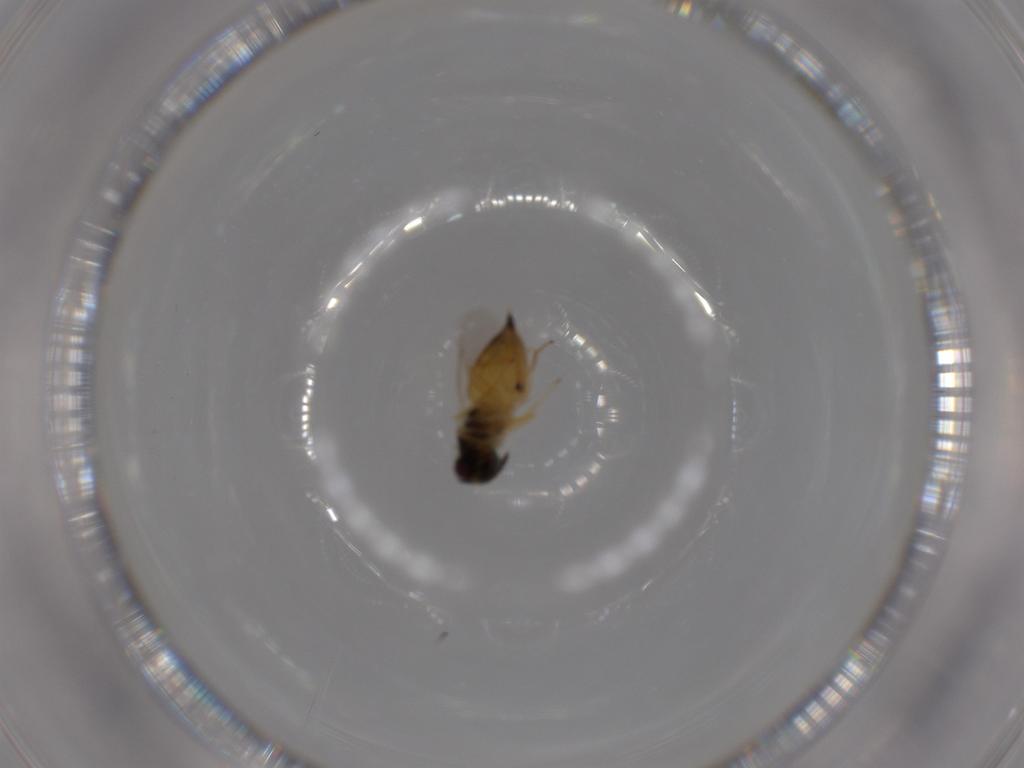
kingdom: Animalia
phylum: Arthropoda
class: Insecta
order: Hymenoptera
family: Eulophidae
